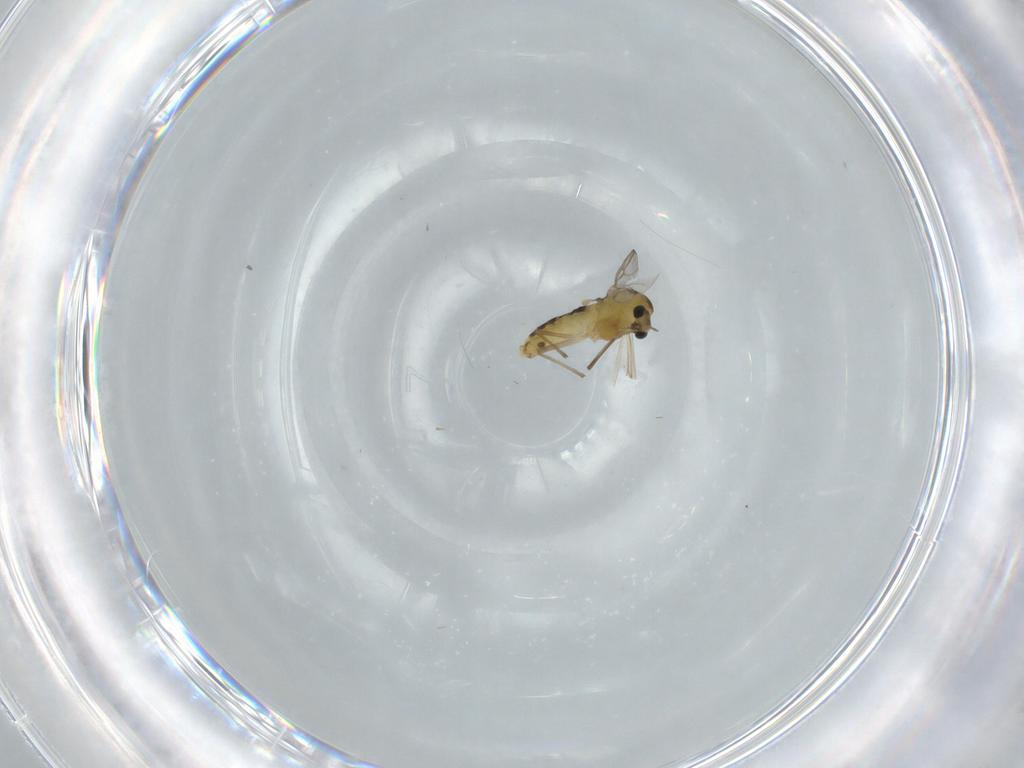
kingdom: Animalia
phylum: Arthropoda
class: Insecta
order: Diptera
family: Chironomidae
